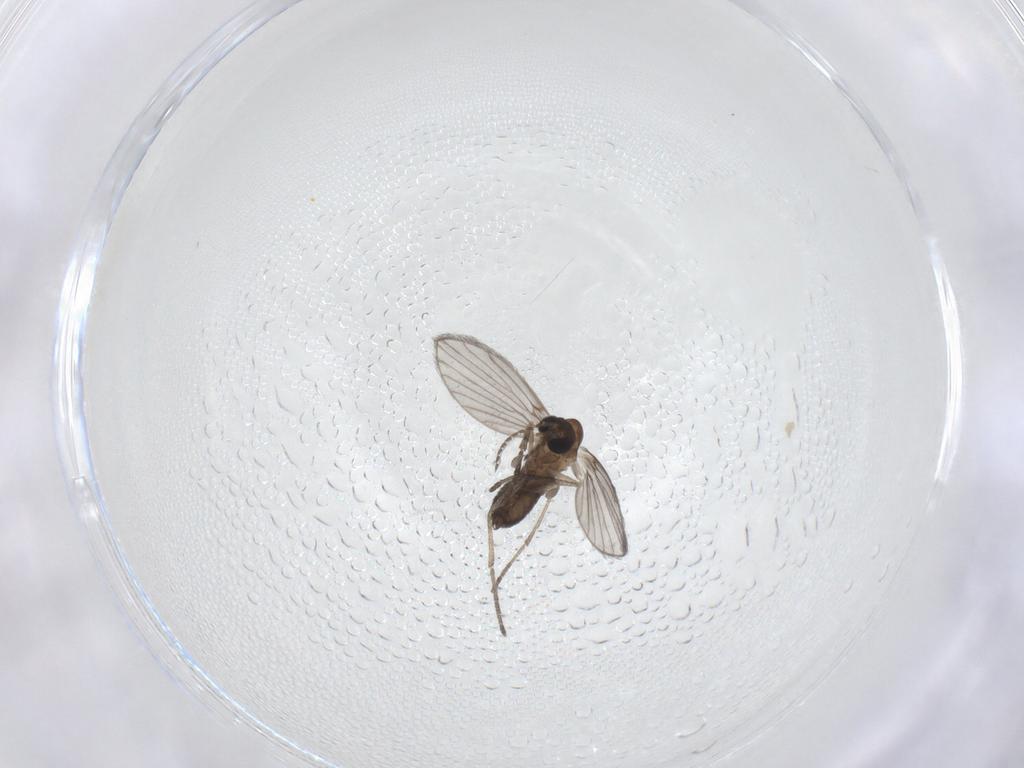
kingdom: Animalia
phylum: Arthropoda
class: Insecta
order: Diptera
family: Psychodidae
